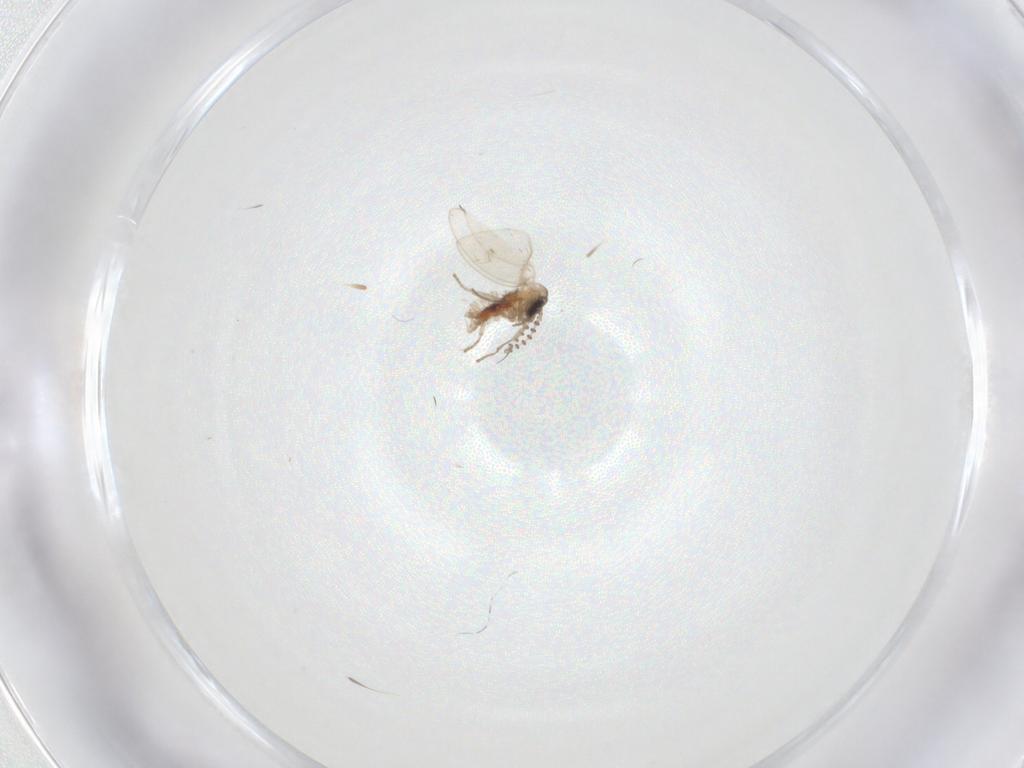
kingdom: Animalia
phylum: Arthropoda
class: Insecta
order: Diptera
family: Psychodidae
